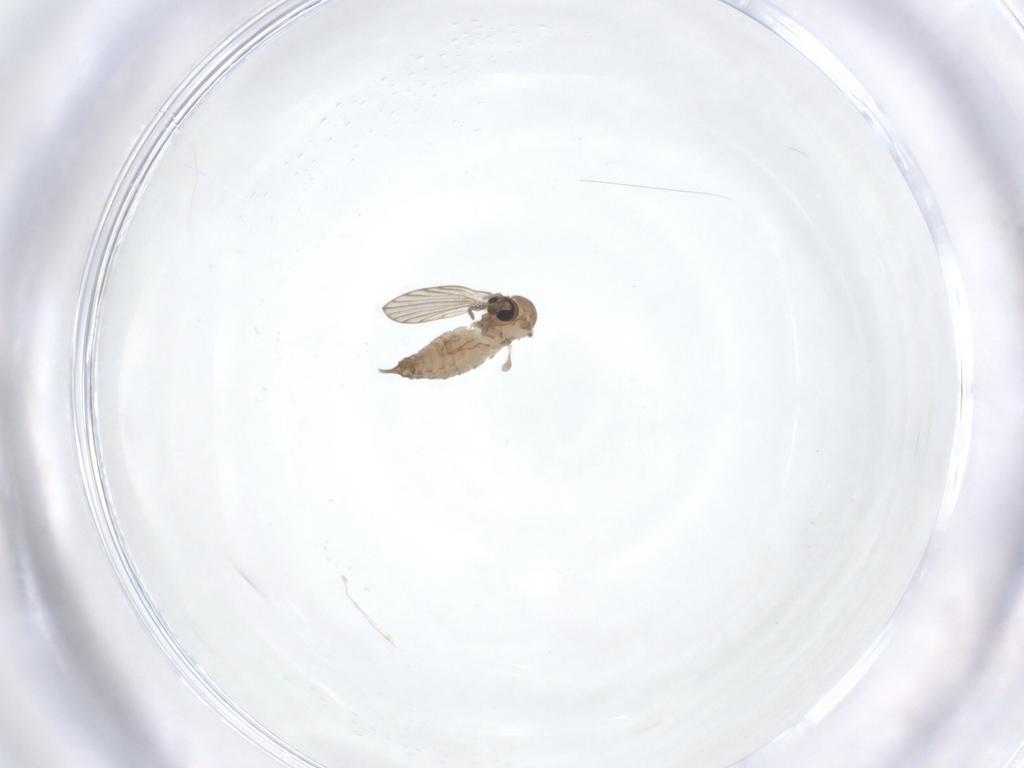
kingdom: Animalia
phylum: Arthropoda
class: Insecta
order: Diptera
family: Psychodidae
